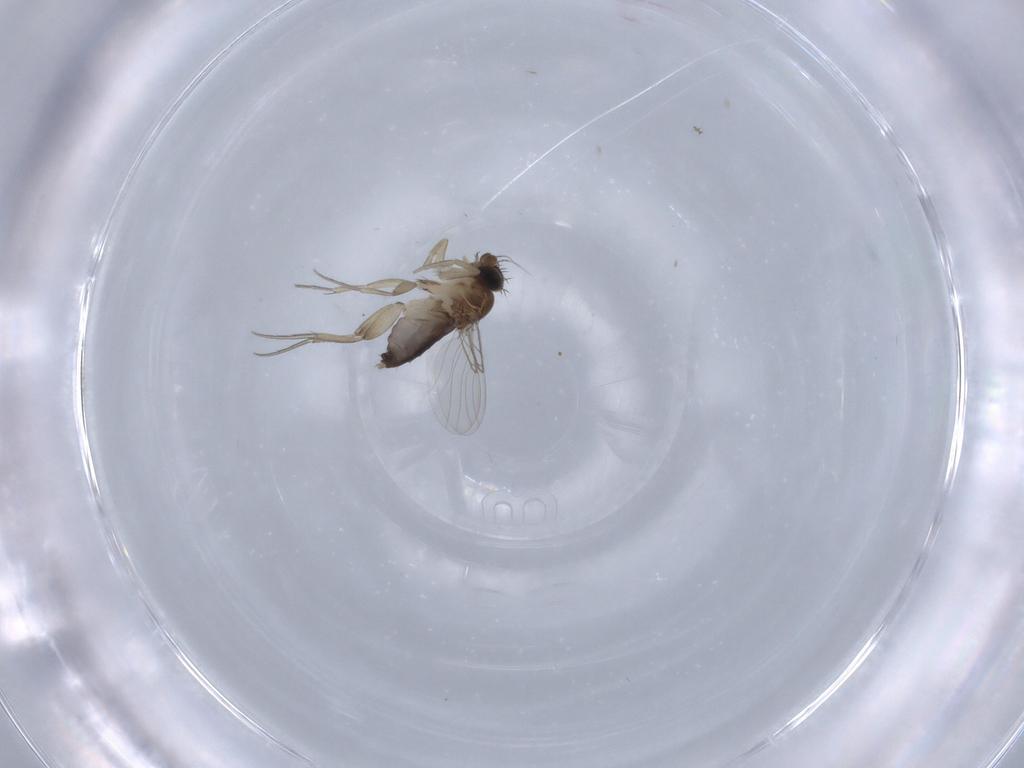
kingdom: Animalia
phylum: Arthropoda
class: Insecta
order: Diptera
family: Phoridae
